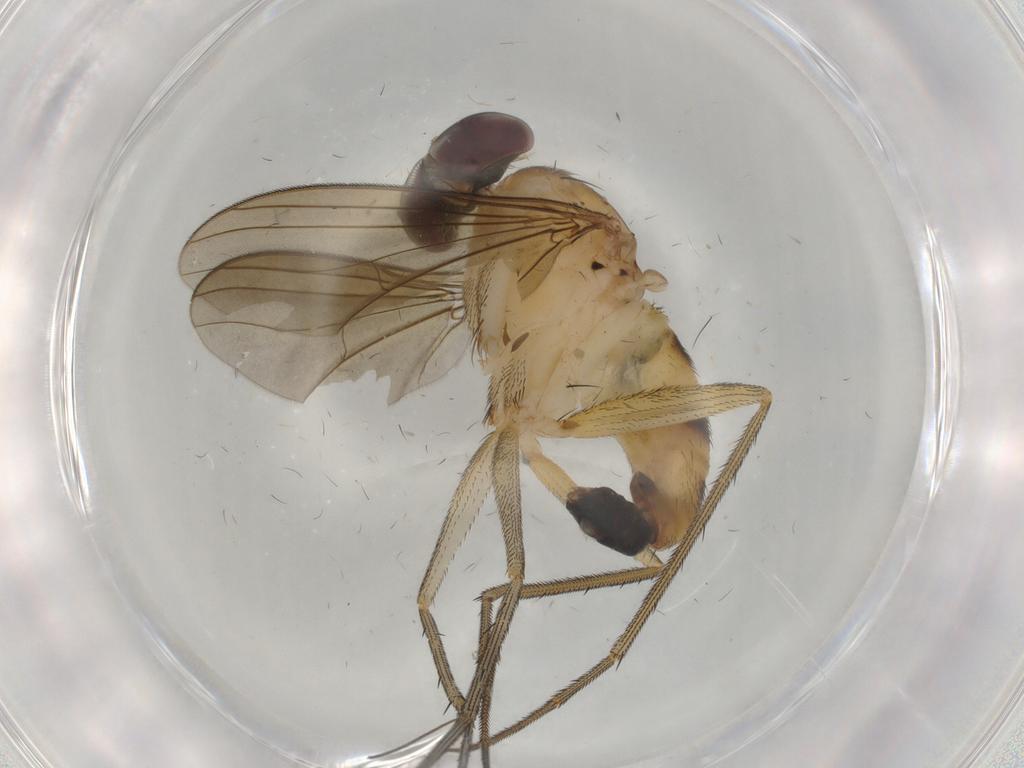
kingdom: Animalia
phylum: Arthropoda
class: Insecta
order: Diptera
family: Dolichopodidae
